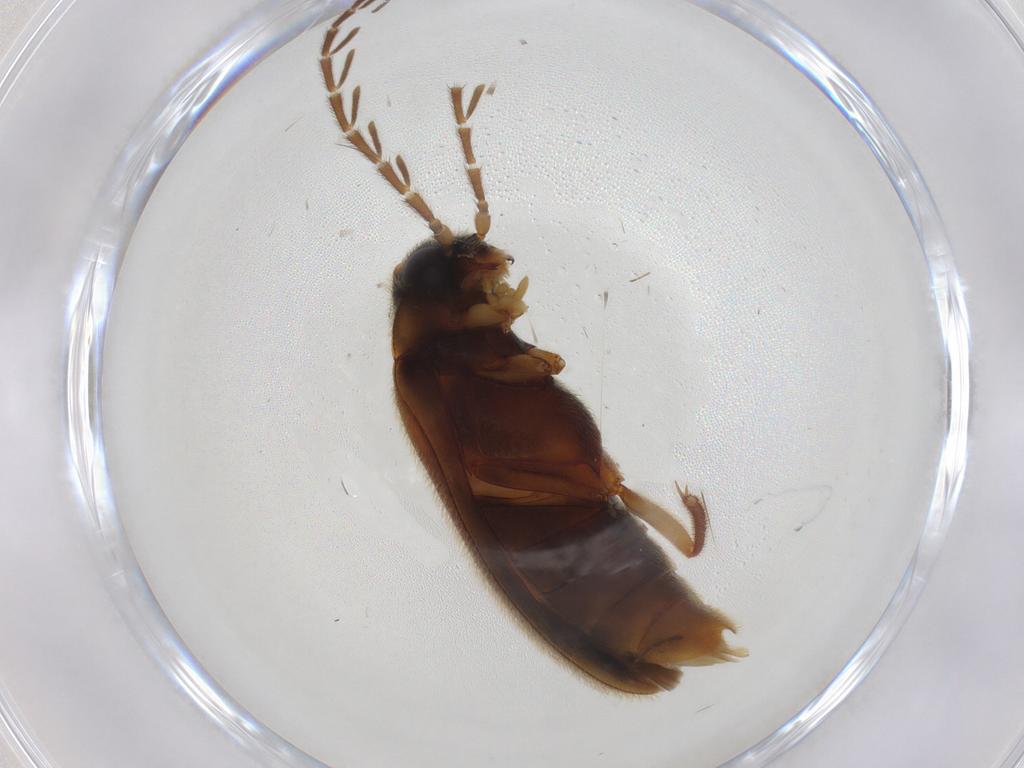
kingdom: Animalia
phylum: Arthropoda
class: Insecta
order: Coleoptera
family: Ptilodactylidae
